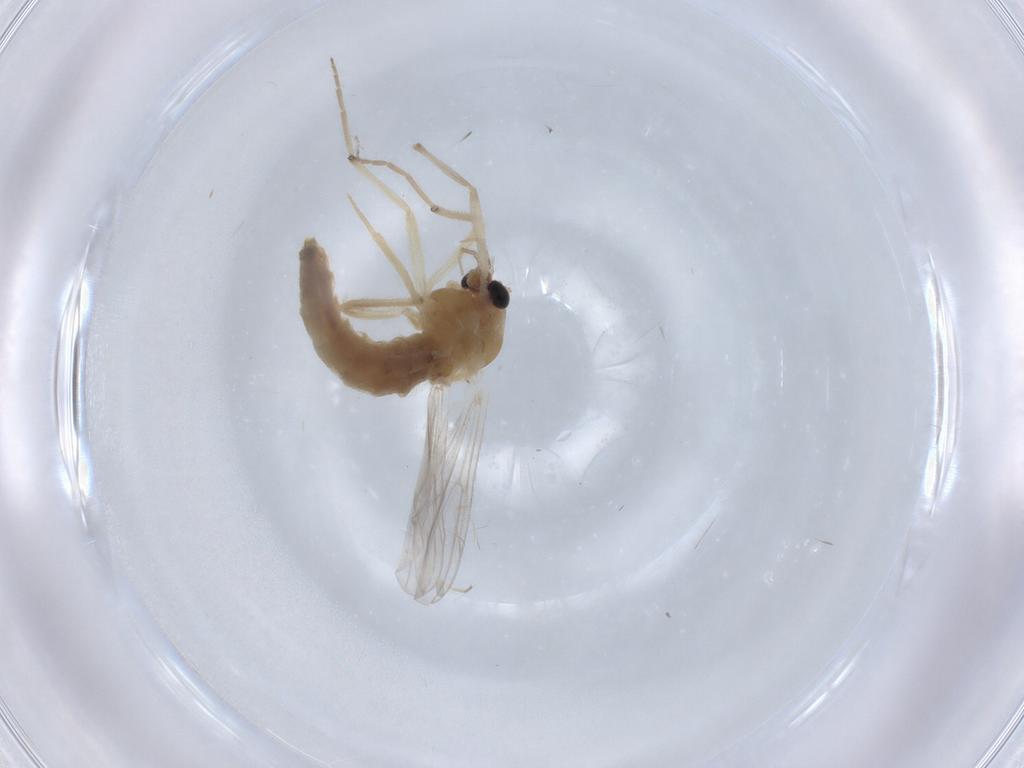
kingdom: Animalia
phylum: Arthropoda
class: Insecta
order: Diptera
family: Chironomidae
